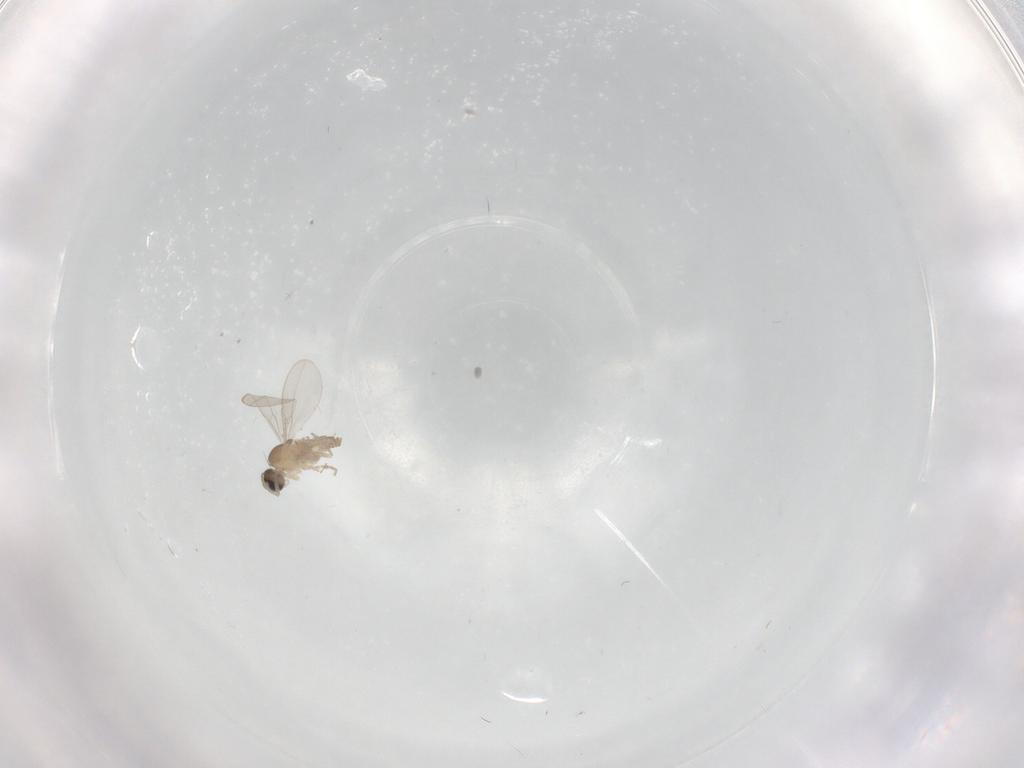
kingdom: Animalia
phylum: Arthropoda
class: Insecta
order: Diptera
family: Cecidomyiidae
